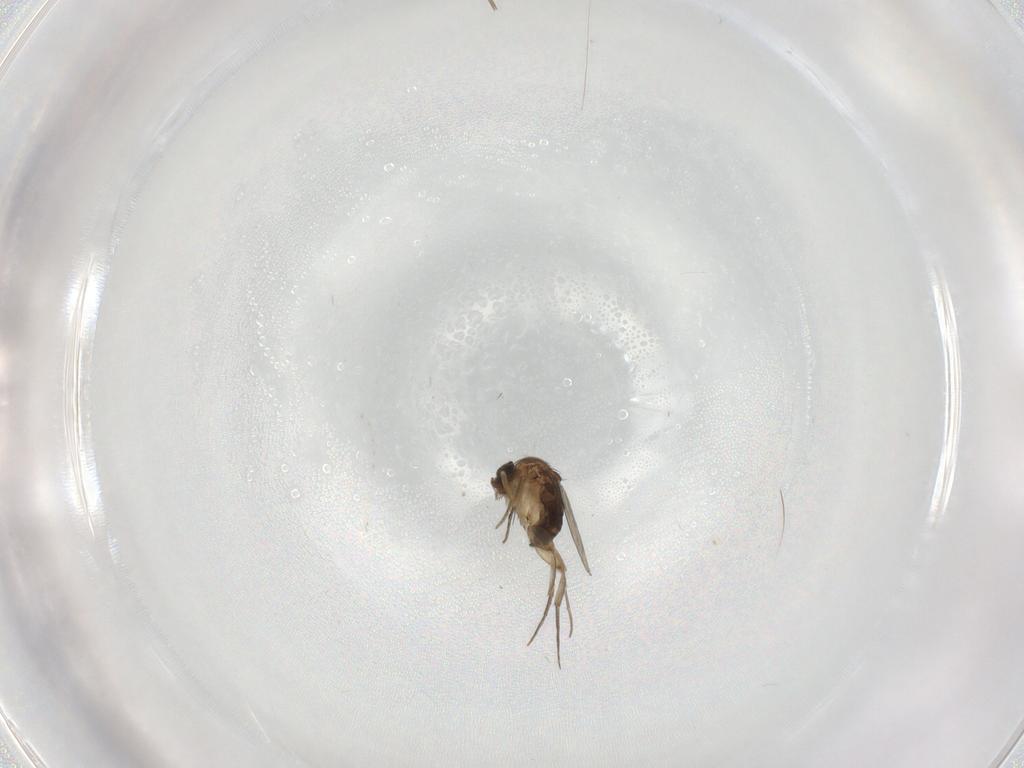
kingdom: Animalia
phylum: Arthropoda
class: Insecta
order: Diptera
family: Phoridae
